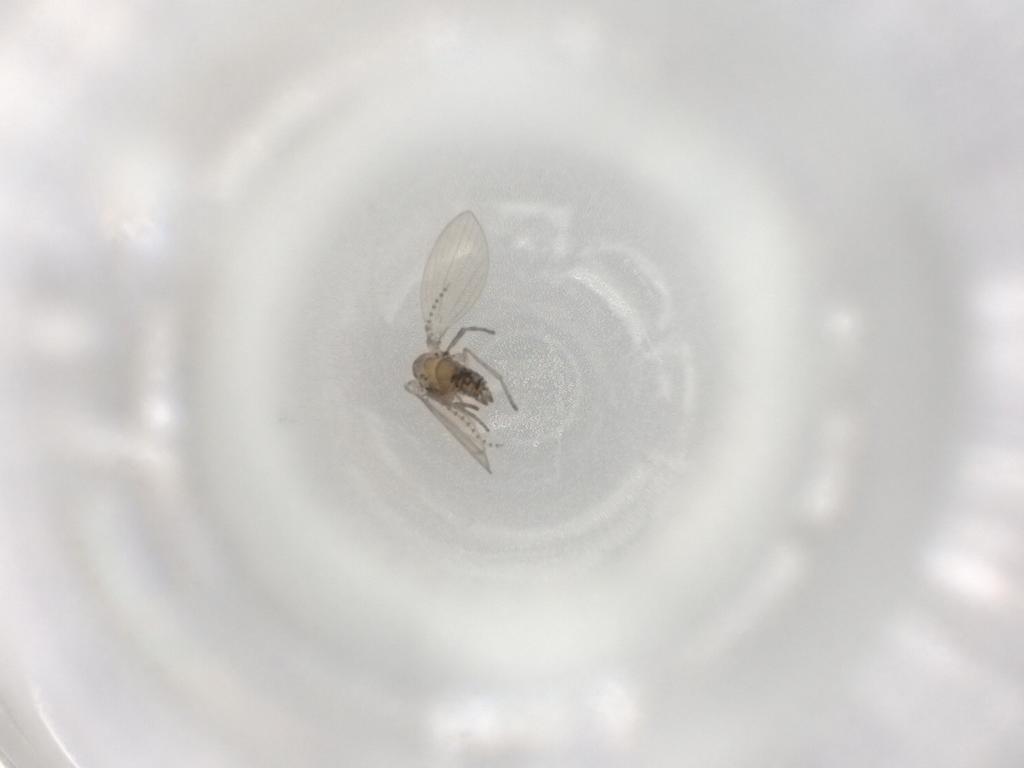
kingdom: Animalia
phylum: Arthropoda
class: Insecta
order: Diptera
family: Psychodidae
